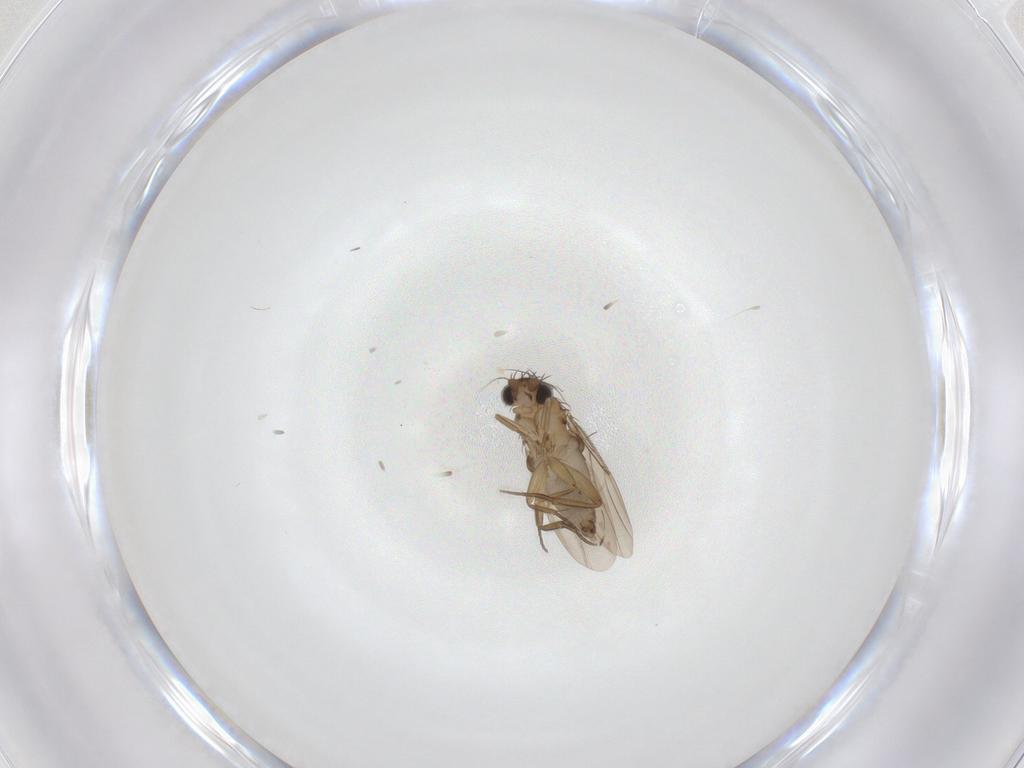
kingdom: Animalia
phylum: Arthropoda
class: Insecta
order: Diptera
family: Phoridae
